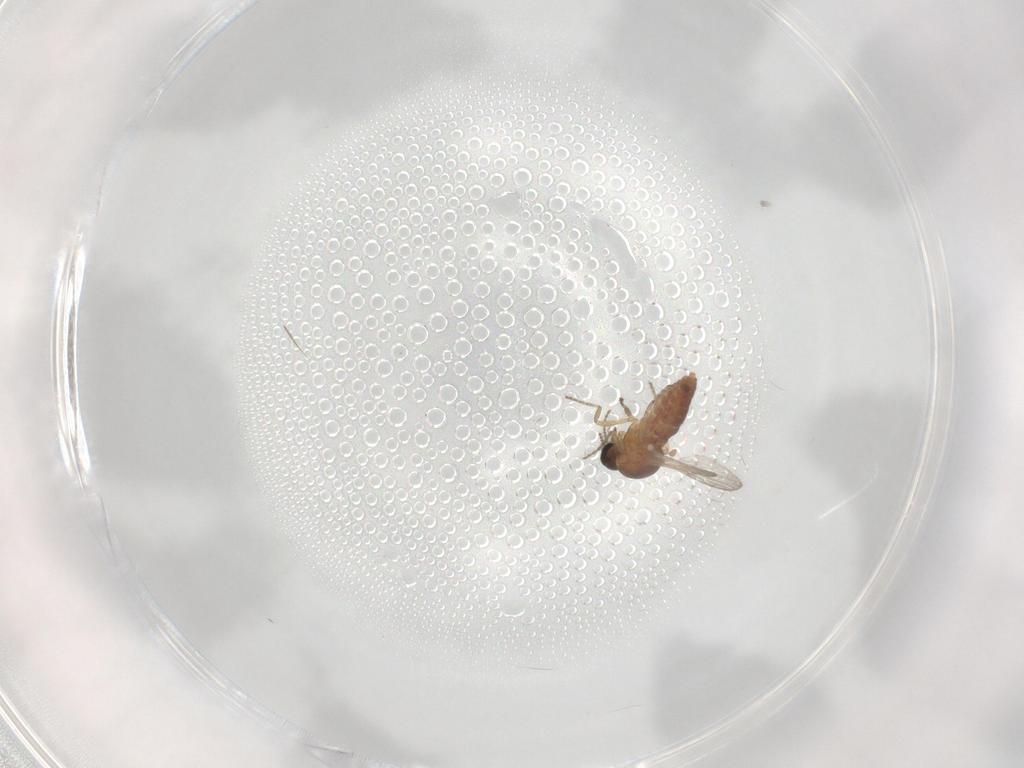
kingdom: Animalia
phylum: Arthropoda
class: Insecta
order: Diptera
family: Ceratopogonidae
